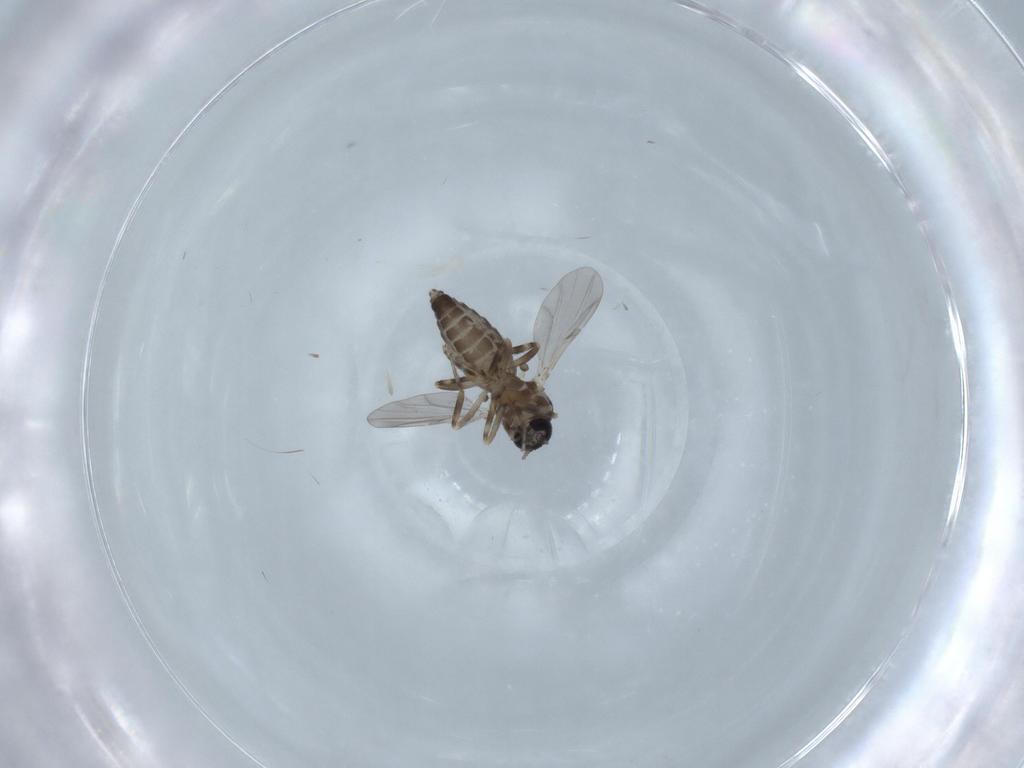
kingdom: Animalia
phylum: Arthropoda
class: Insecta
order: Diptera
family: Ceratopogonidae
